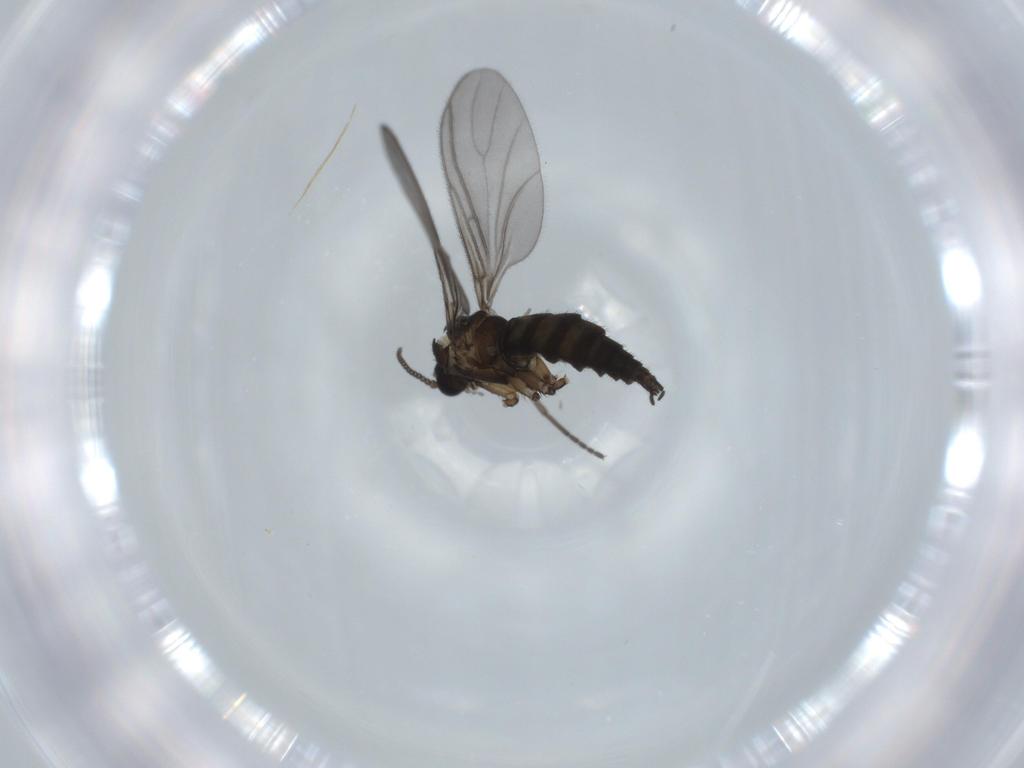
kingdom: Animalia
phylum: Arthropoda
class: Insecta
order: Diptera
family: Sciaridae
